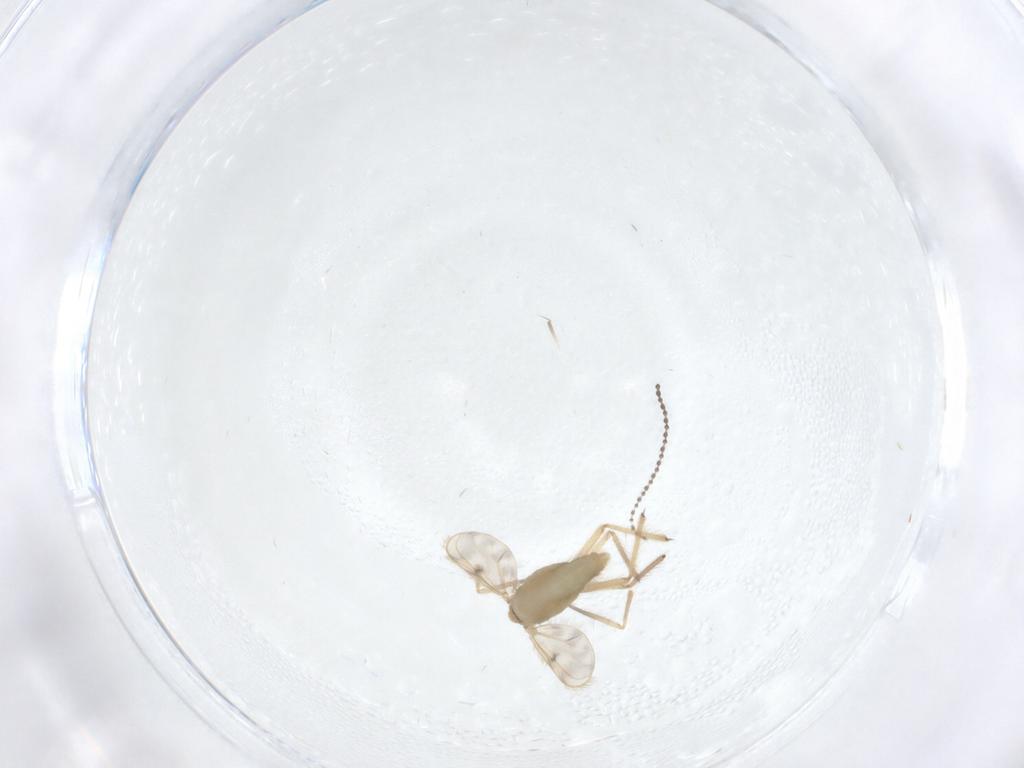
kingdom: Animalia
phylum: Arthropoda
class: Insecta
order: Diptera
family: Cecidomyiidae
